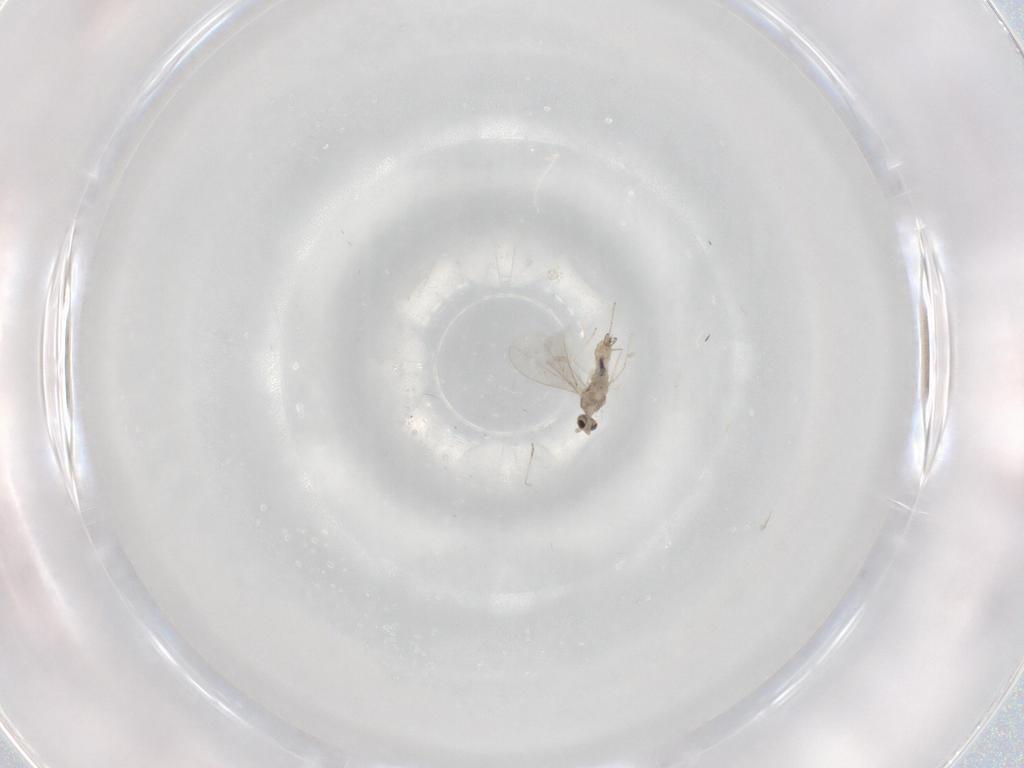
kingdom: Animalia
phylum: Arthropoda
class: Insecta
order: Diptera
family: Cecidomyiidae
